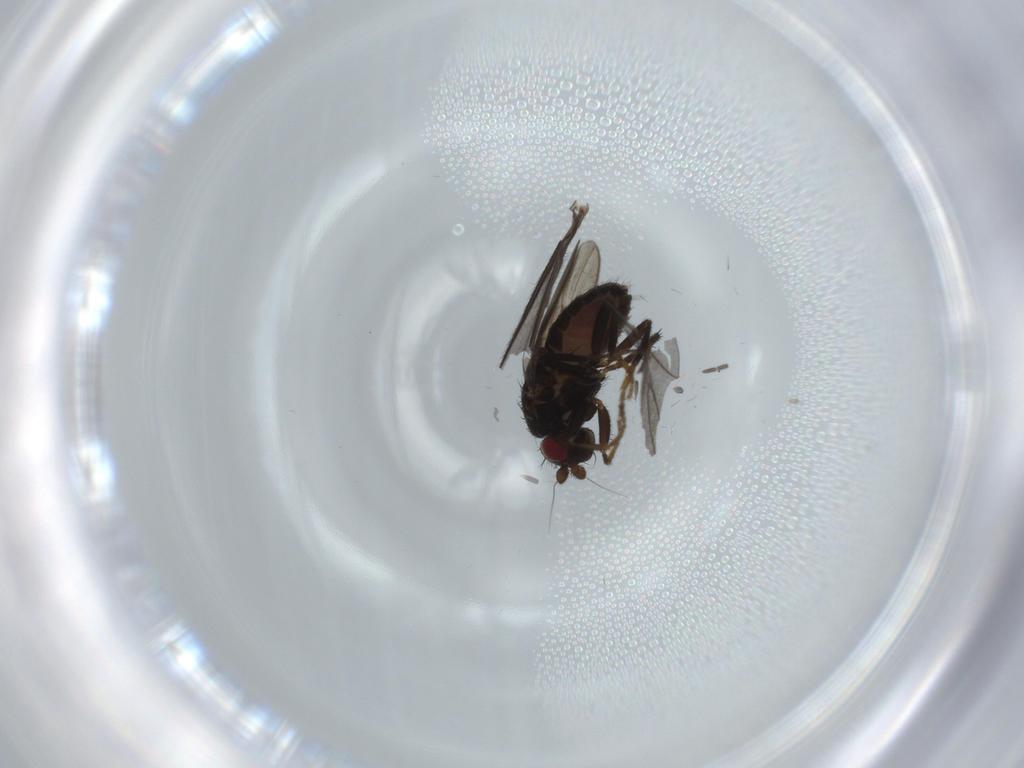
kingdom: Animalia
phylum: Arthropoda
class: Insecta
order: Diptera
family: Sphaeroceridae
